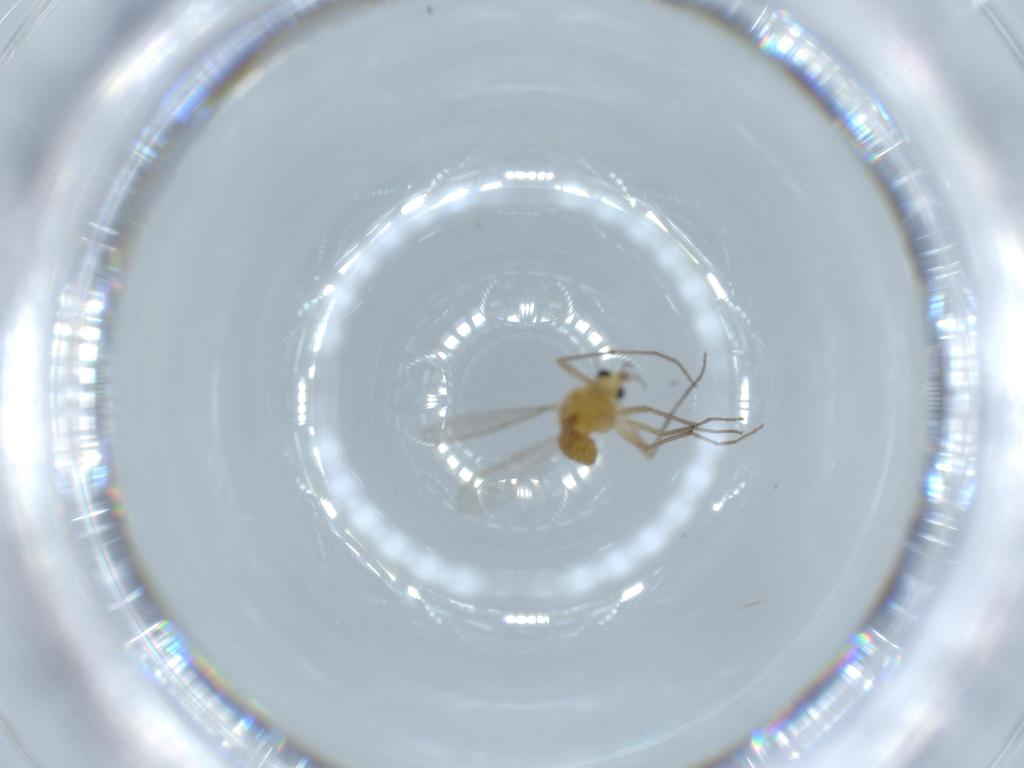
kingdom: Animalia
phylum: Arthropoda
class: Insecta
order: Diptera
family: Chironomidae
